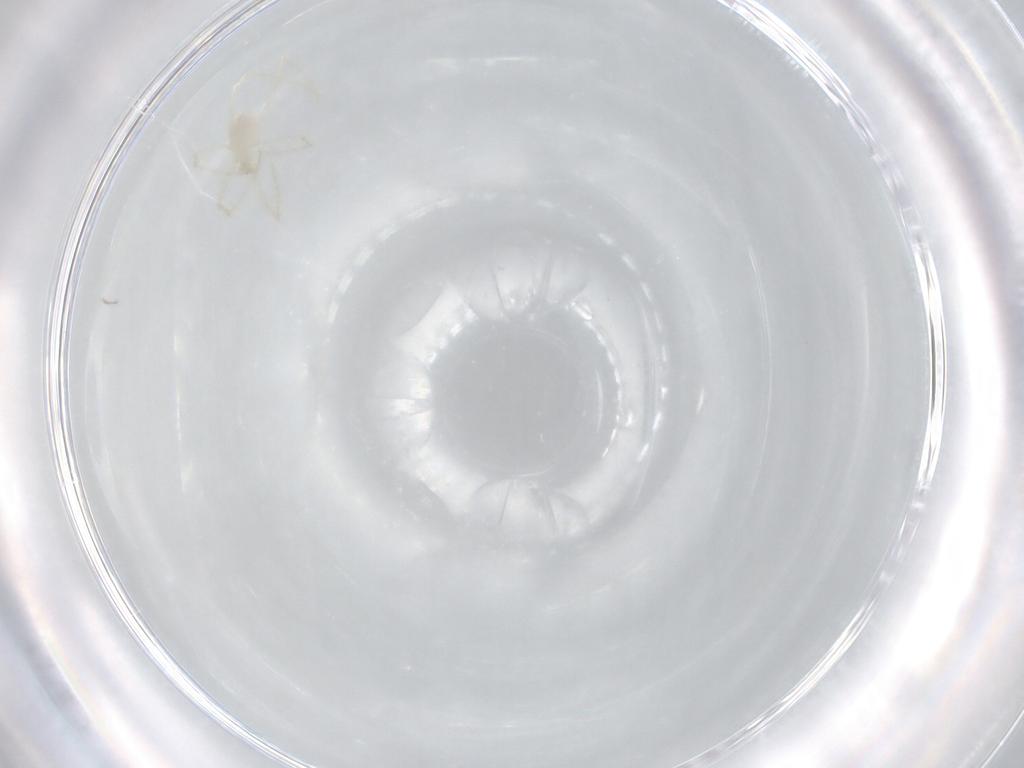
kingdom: Animalia
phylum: Arthropoda
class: Arachnida
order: Trombidiformes
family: Erythraeidae
